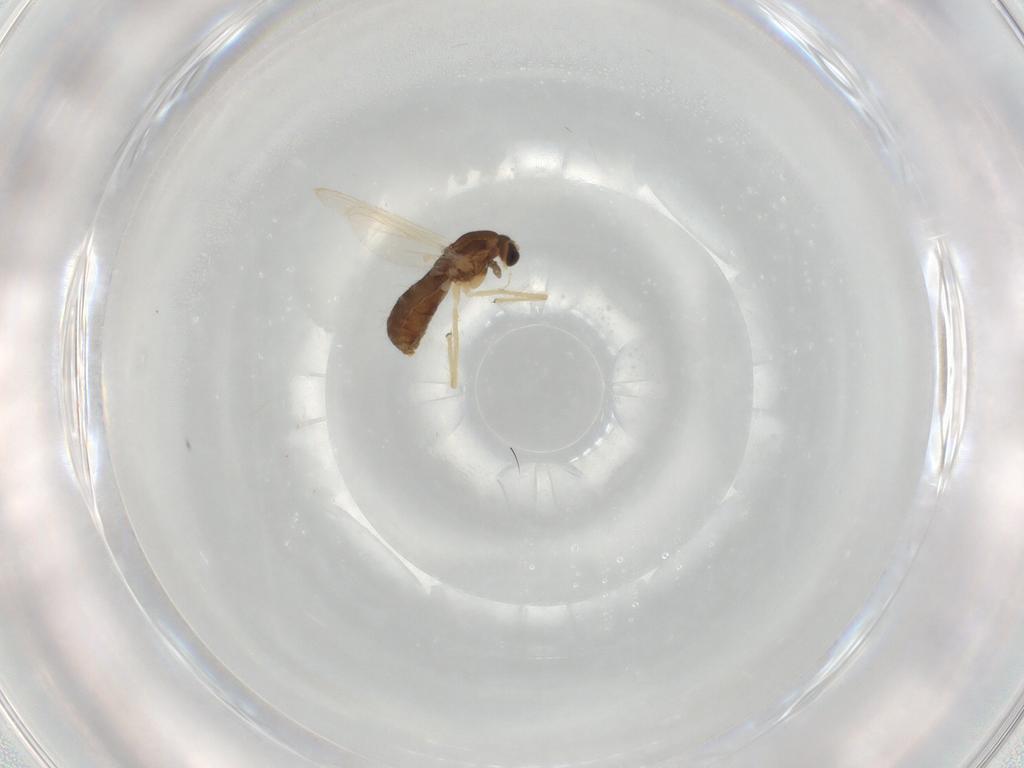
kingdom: Animalia
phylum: Arthropoda
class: Insecta
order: Diptera
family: Chironomidae
